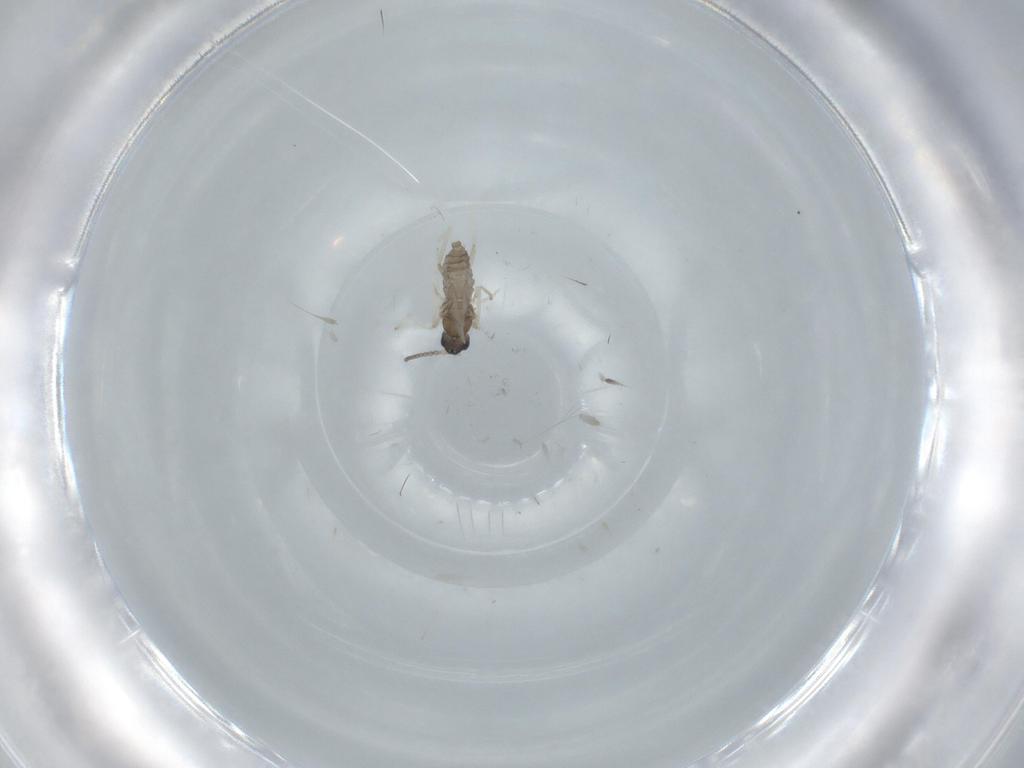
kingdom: Animalia
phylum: Arthropoda
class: Insecta
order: Diptera
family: Cecidomyiidae
